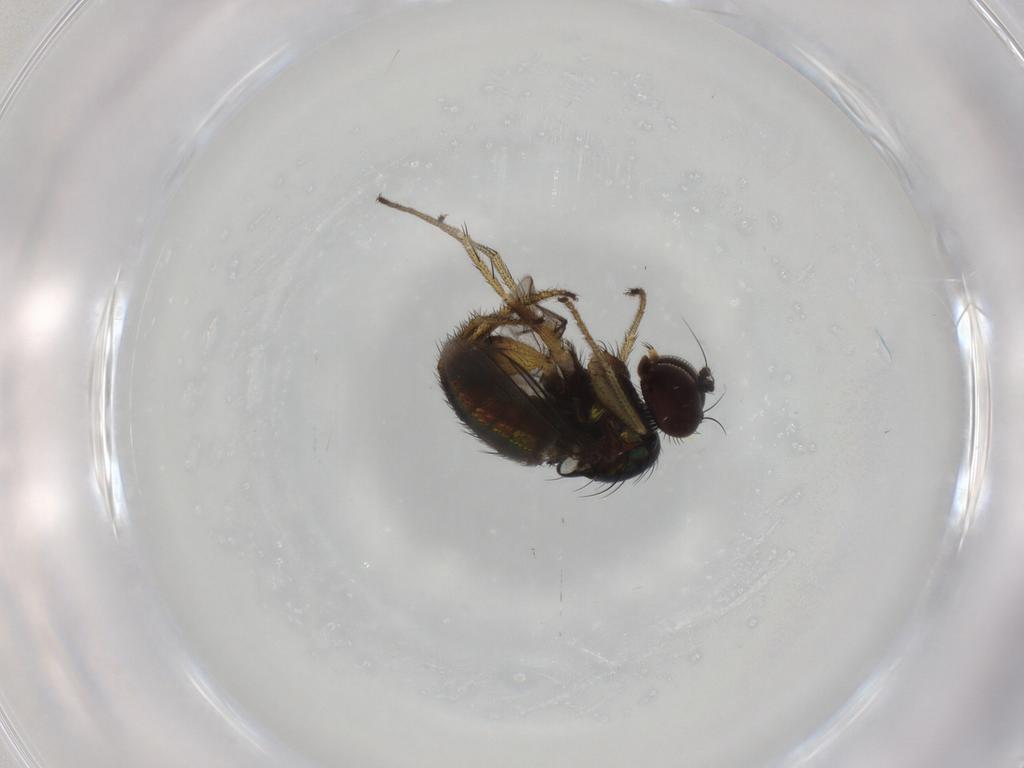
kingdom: Animalia
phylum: Arthropoda
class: Insecta
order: Diptera
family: Dolichopodidae
